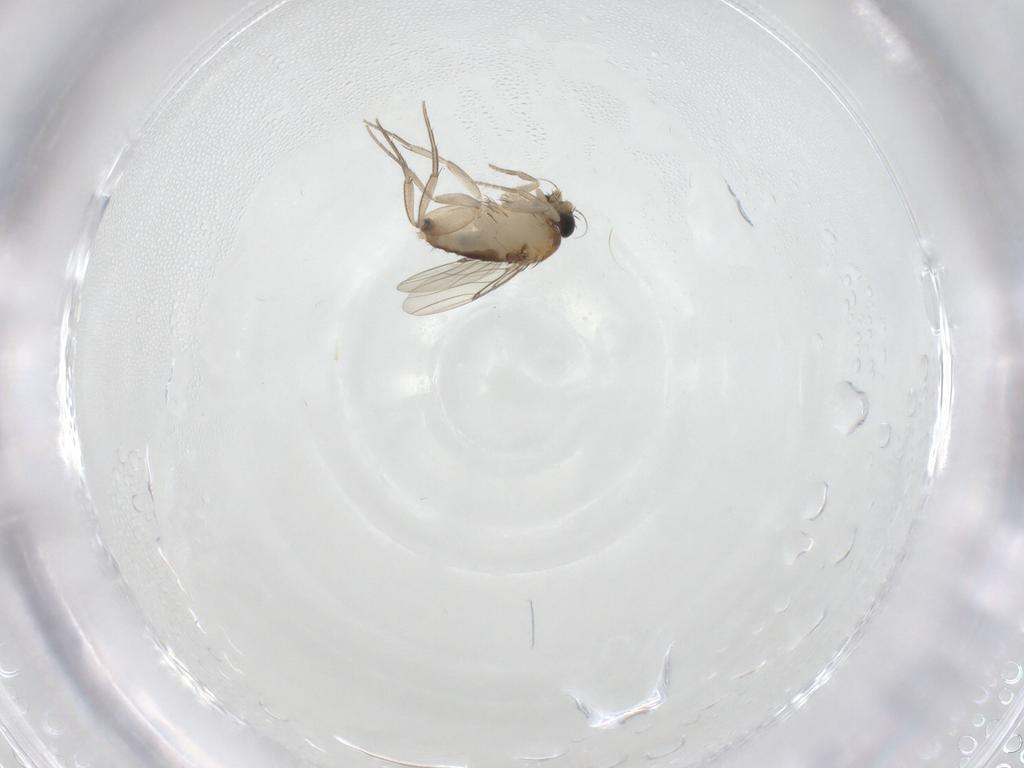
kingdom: Animalia
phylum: Arthropoda
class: Insecta
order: Diptera
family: Phoridae
